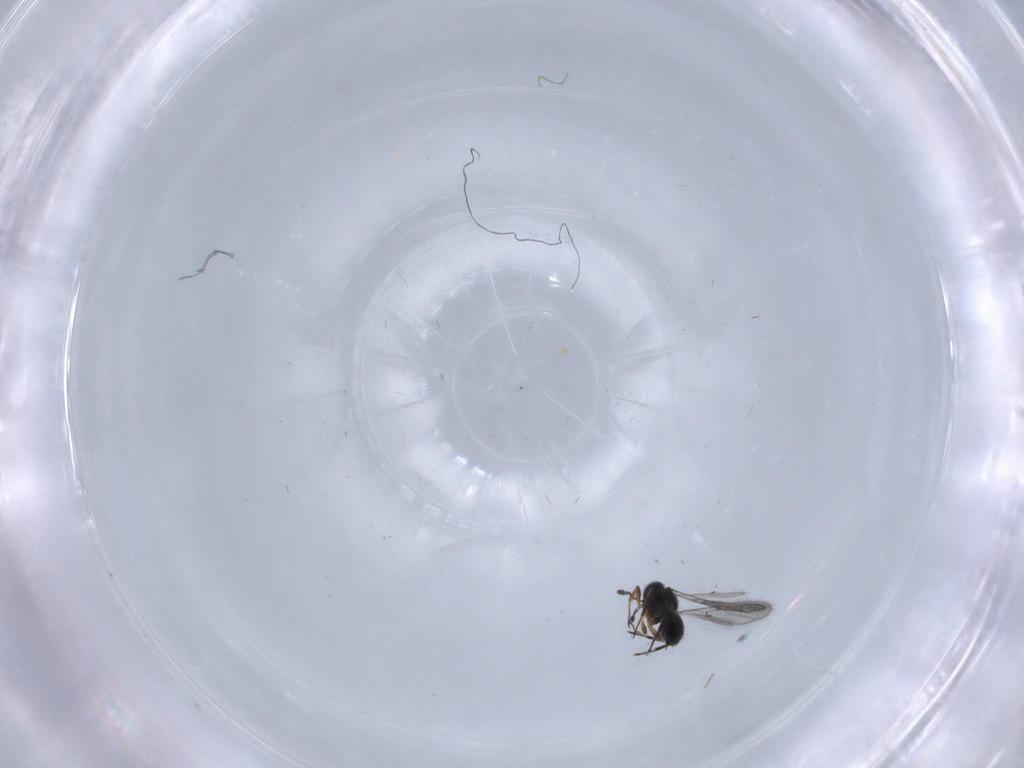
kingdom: Animalia
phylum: Arthropoda
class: Insecta
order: Hymenoptera
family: Scelionidae
